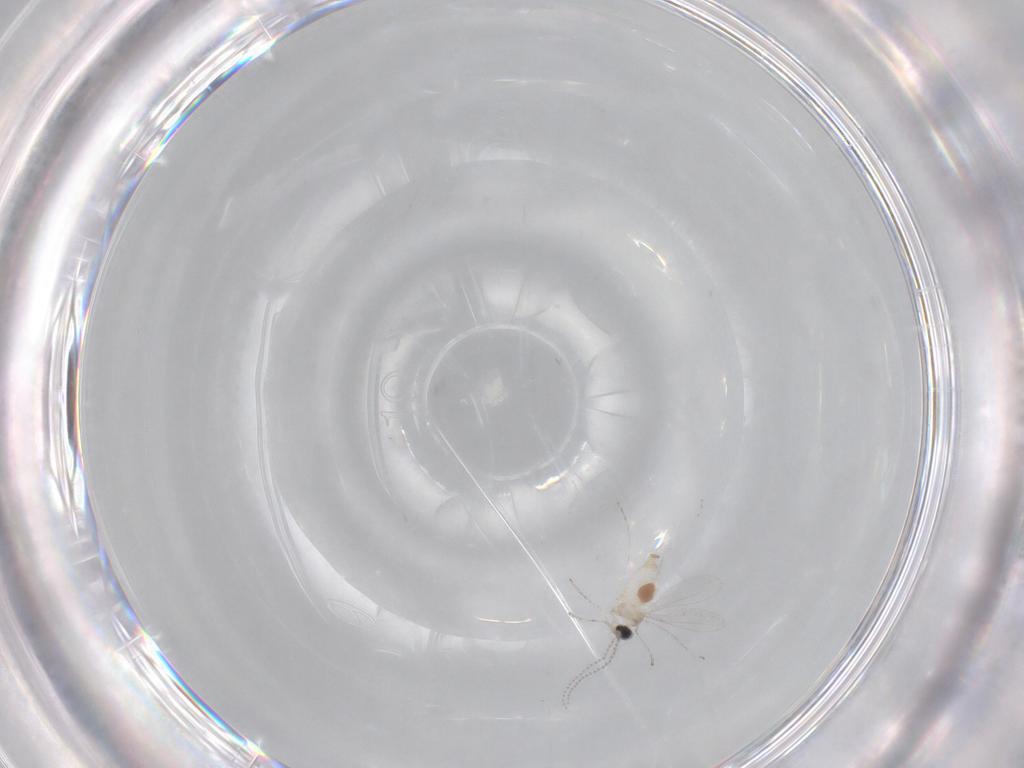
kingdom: Animalia
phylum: Arthropoda
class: Insecta
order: Diptera
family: Cecidomyiidae
